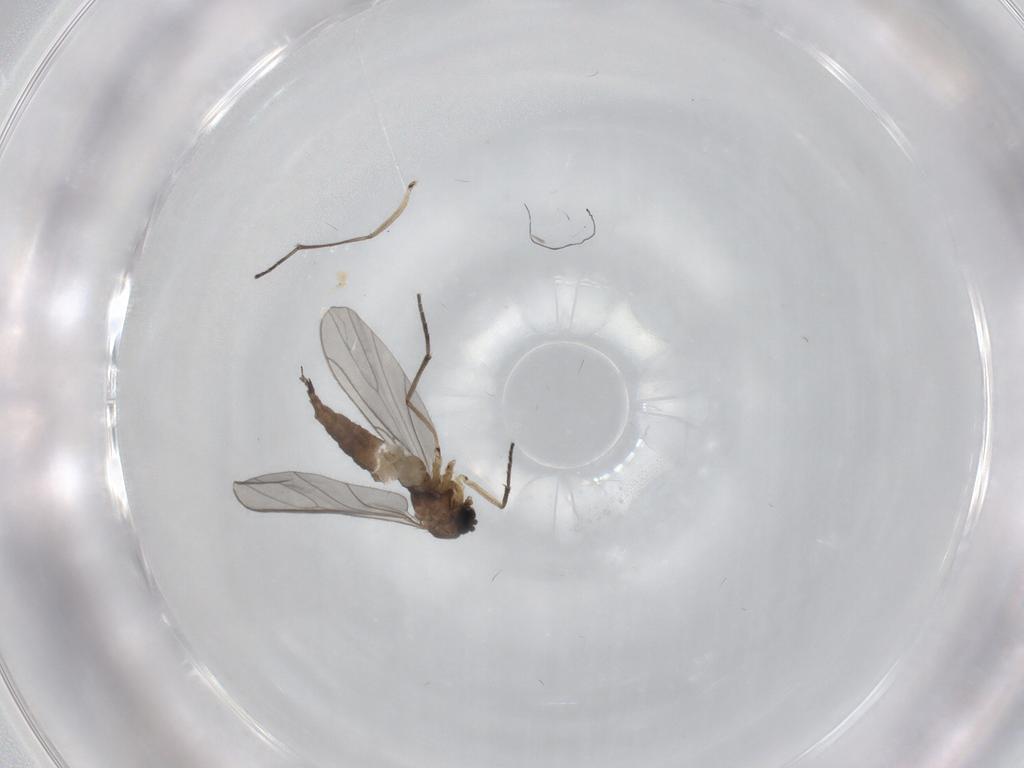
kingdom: Animalia
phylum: Arthropoda
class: Insecta
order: Diptera
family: Sciaridae
